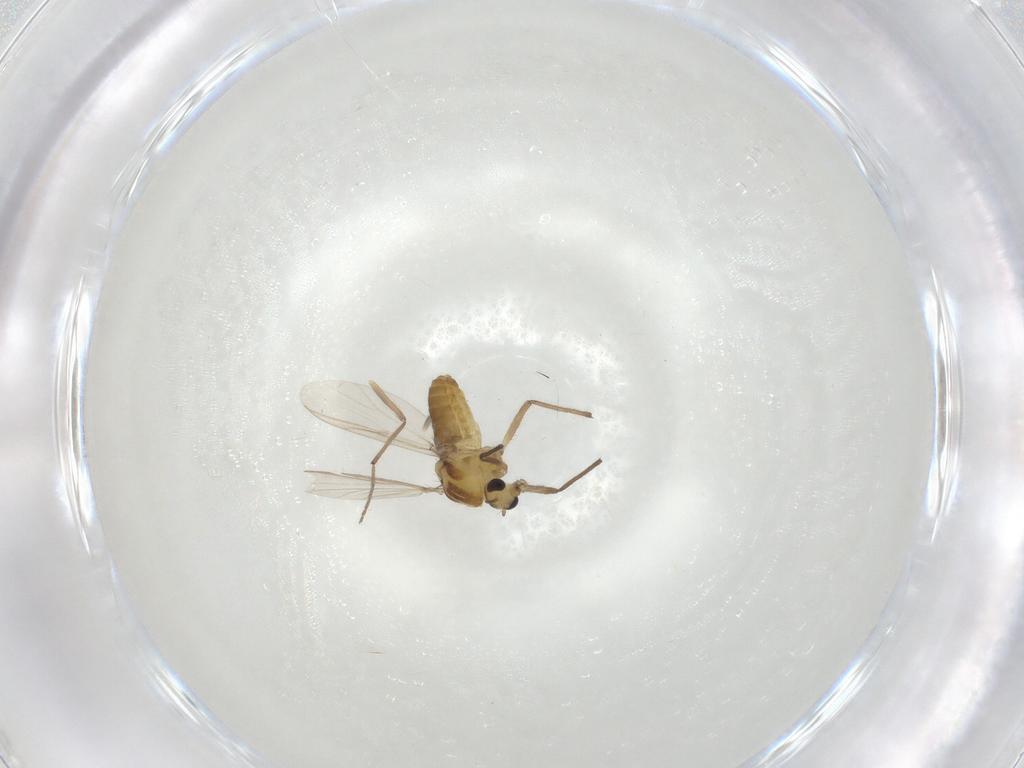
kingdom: Animalia
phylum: Arthropoda
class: Insecta
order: Diptera
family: Chironomidae
